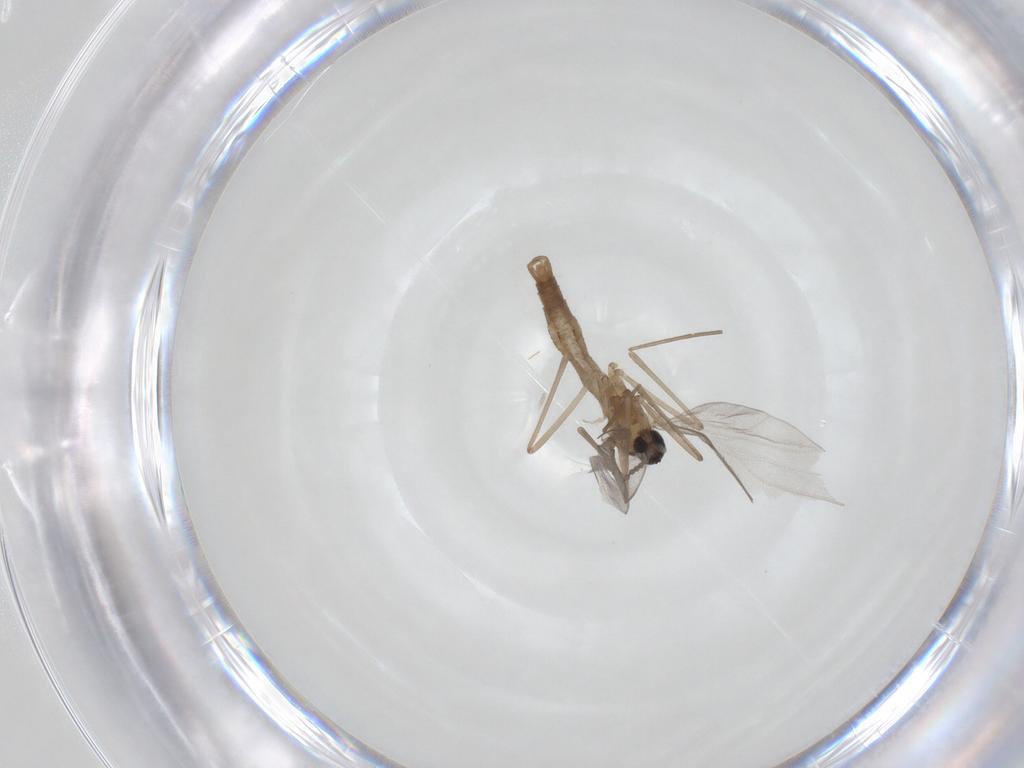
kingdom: Animalia
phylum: Arthropoda
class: Insecta
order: Diptera
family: Cecidomyiidae
